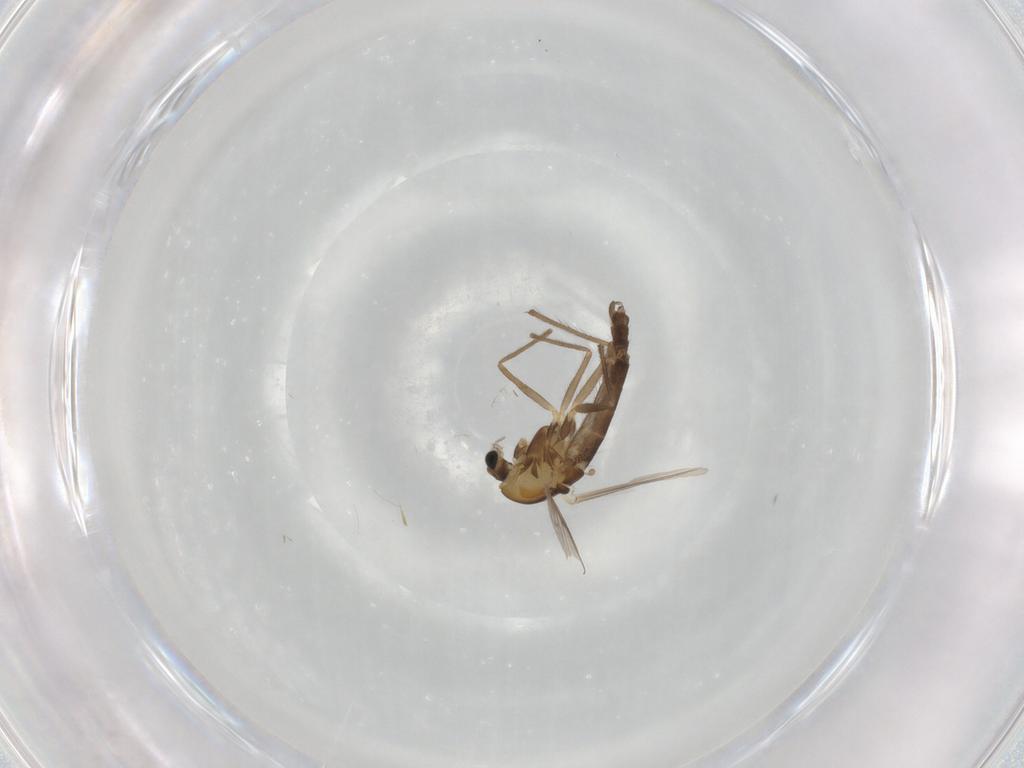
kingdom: Animalia
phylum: Arthropoda
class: Insecta
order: Diptera
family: Chironomidae
